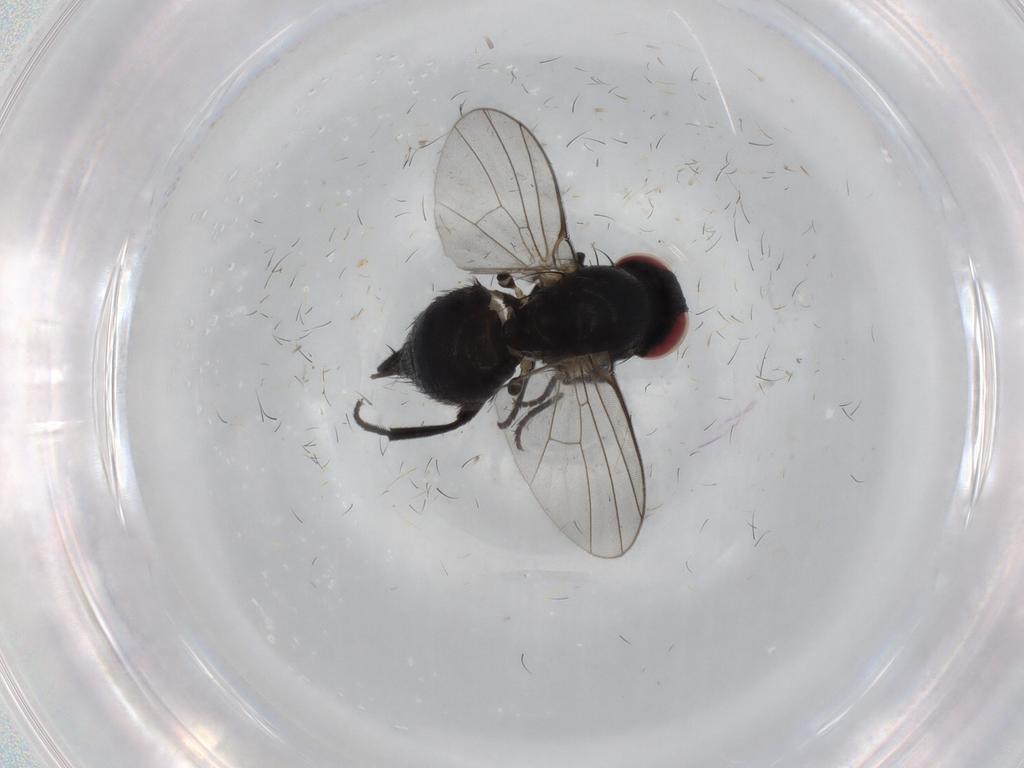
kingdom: Animalia
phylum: Arthropoda
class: Insecta
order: Diptera
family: Agromyzidae
